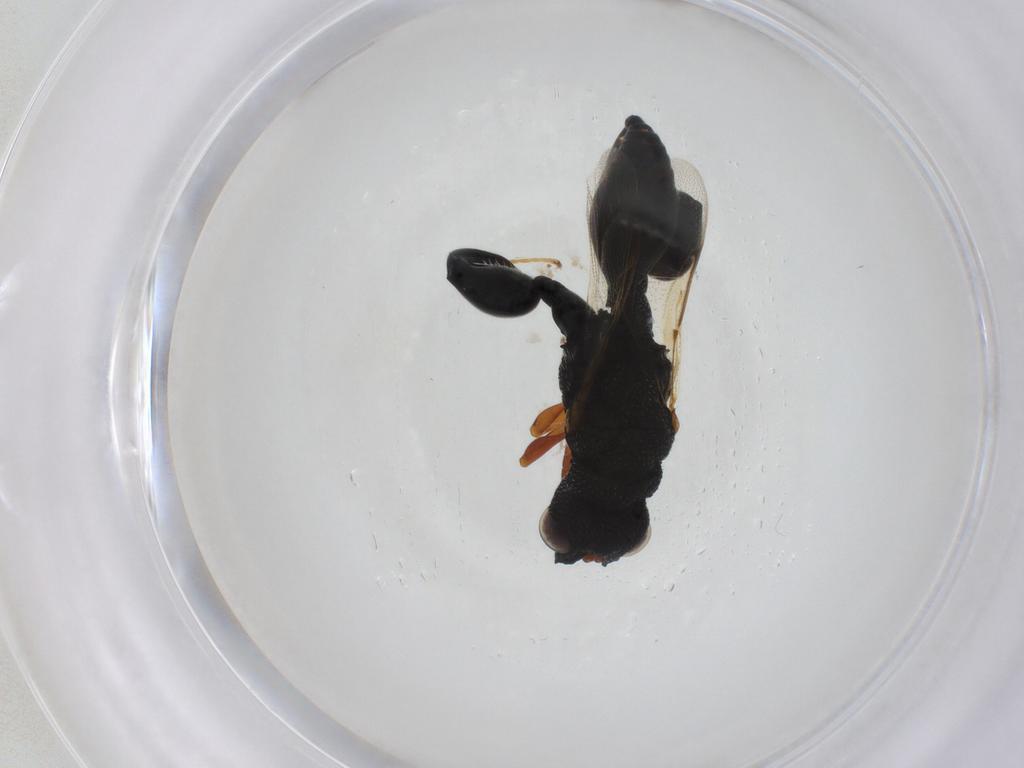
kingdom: Animalia
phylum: Arthropoda
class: Insecta
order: Hymenoptera
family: Chalcididae
